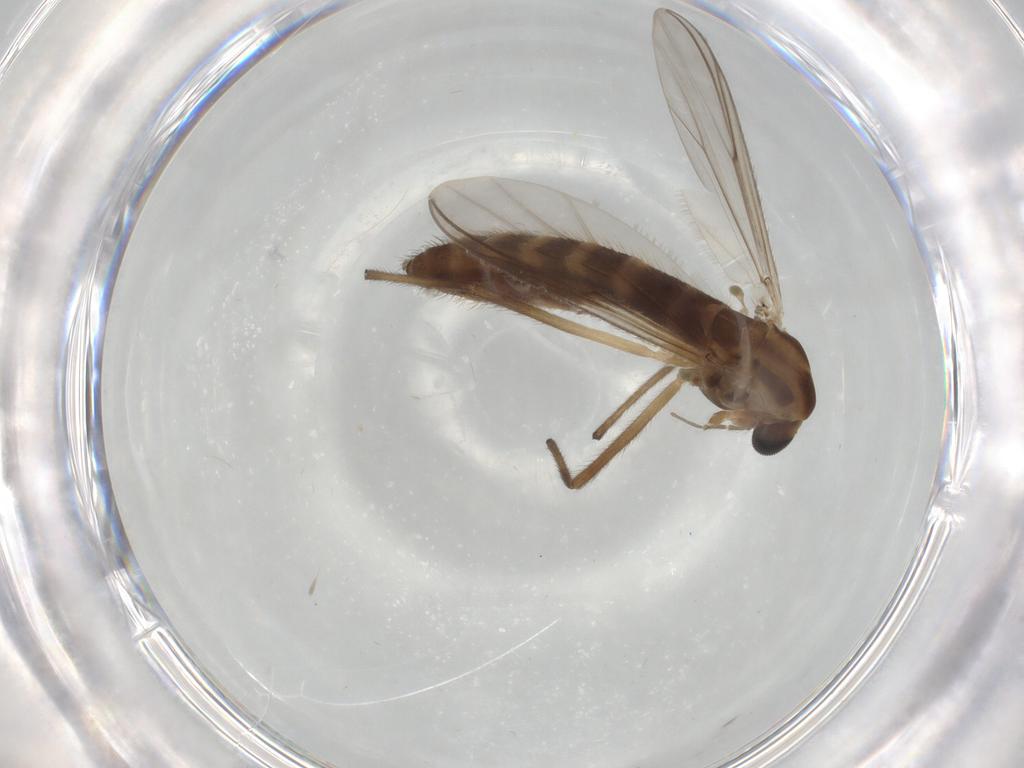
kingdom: Animalia
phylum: Arthropoda
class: Insecta
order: Diptera
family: Chironomidae
